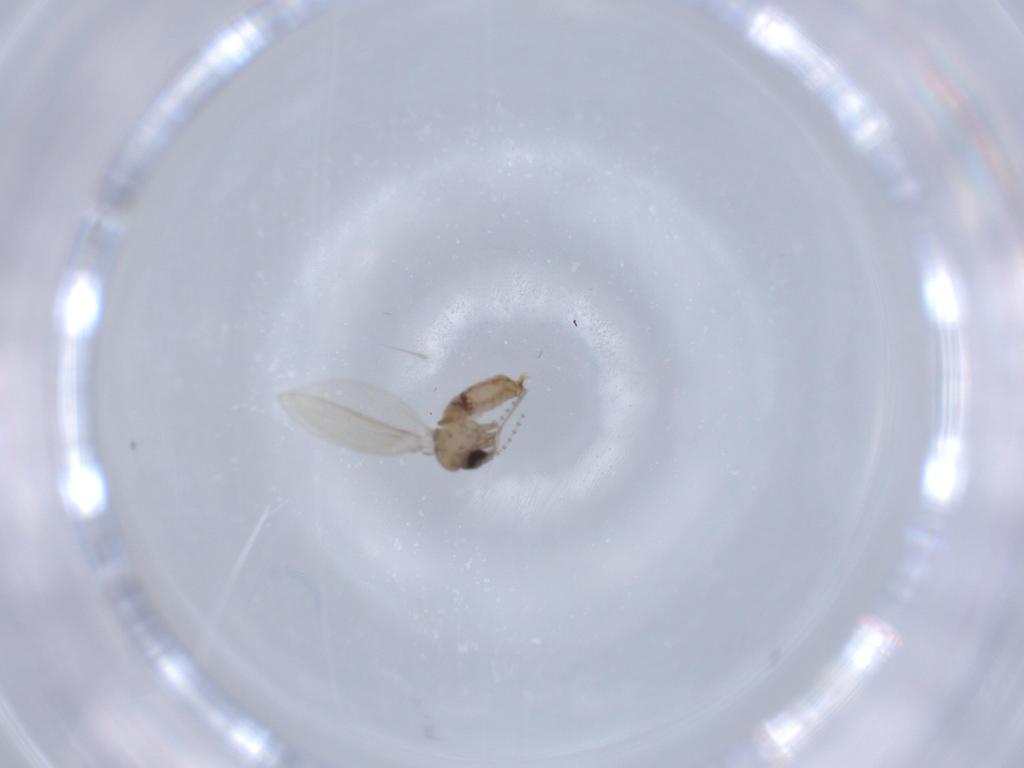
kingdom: Animalia
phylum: Arthropoda
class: Insecta
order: Diptera
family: Psychodidae
